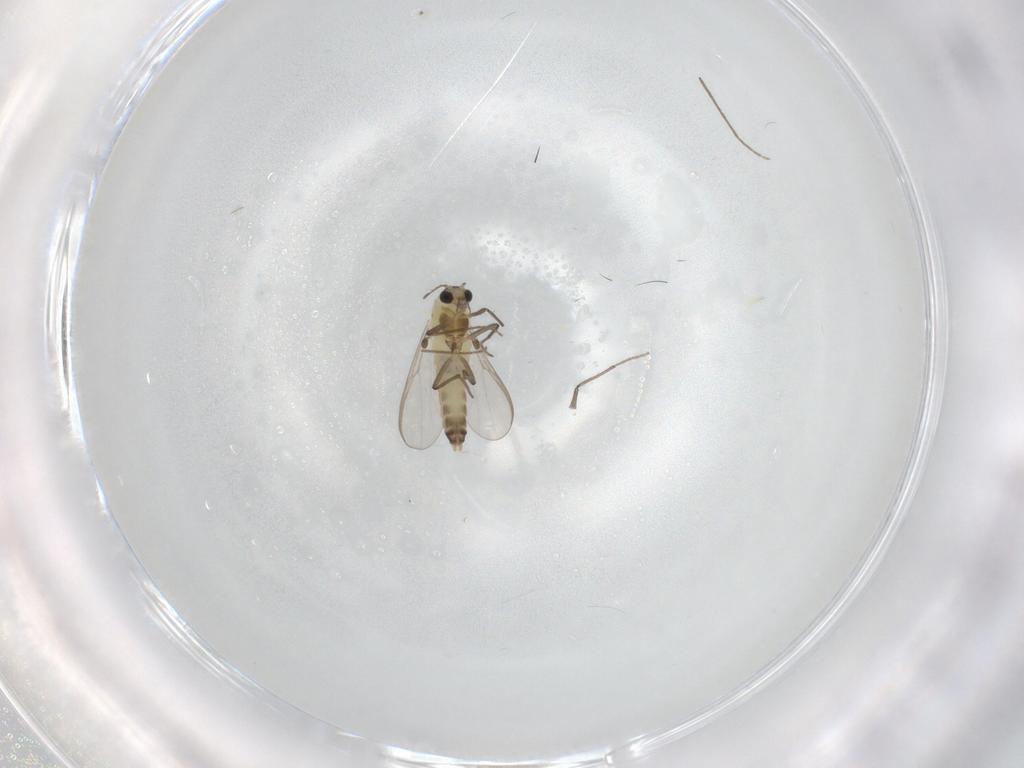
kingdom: Animalia
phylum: Arthropoda
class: Insecta
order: Diptera
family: Chironomidae
